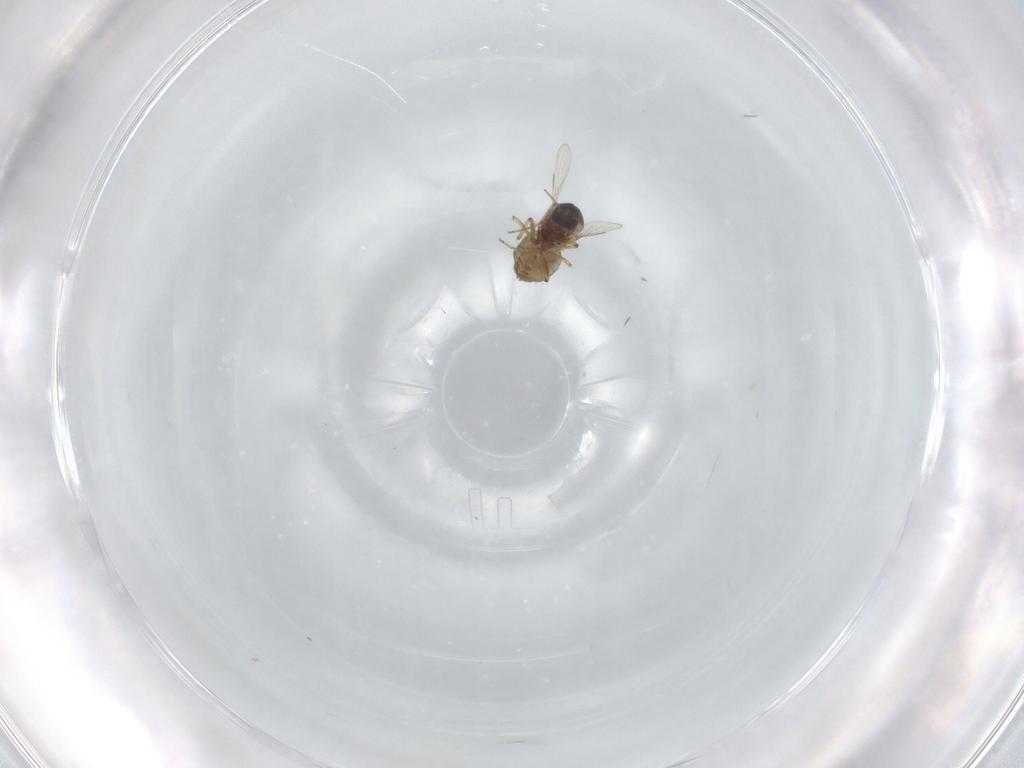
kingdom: Animalia
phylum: Arthropoda
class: Insecta
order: Diptera
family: Ceratopogonidae
